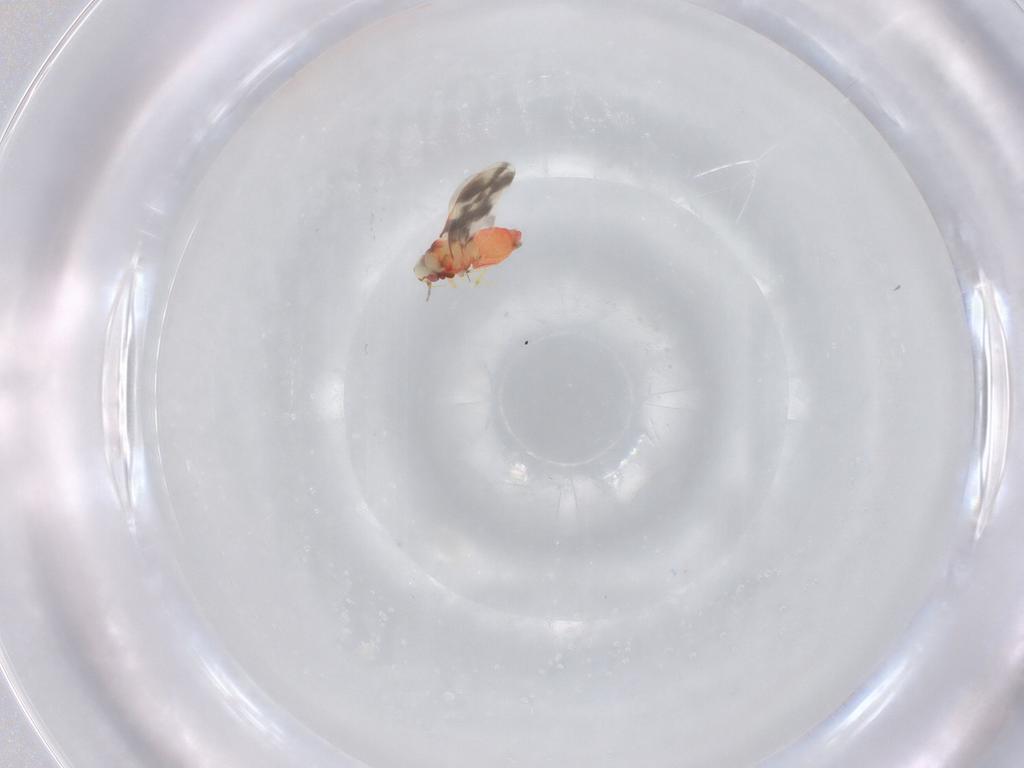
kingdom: Animalia
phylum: Arthropoda
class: Insecta
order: Hemiptera
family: Aleyrodidae
